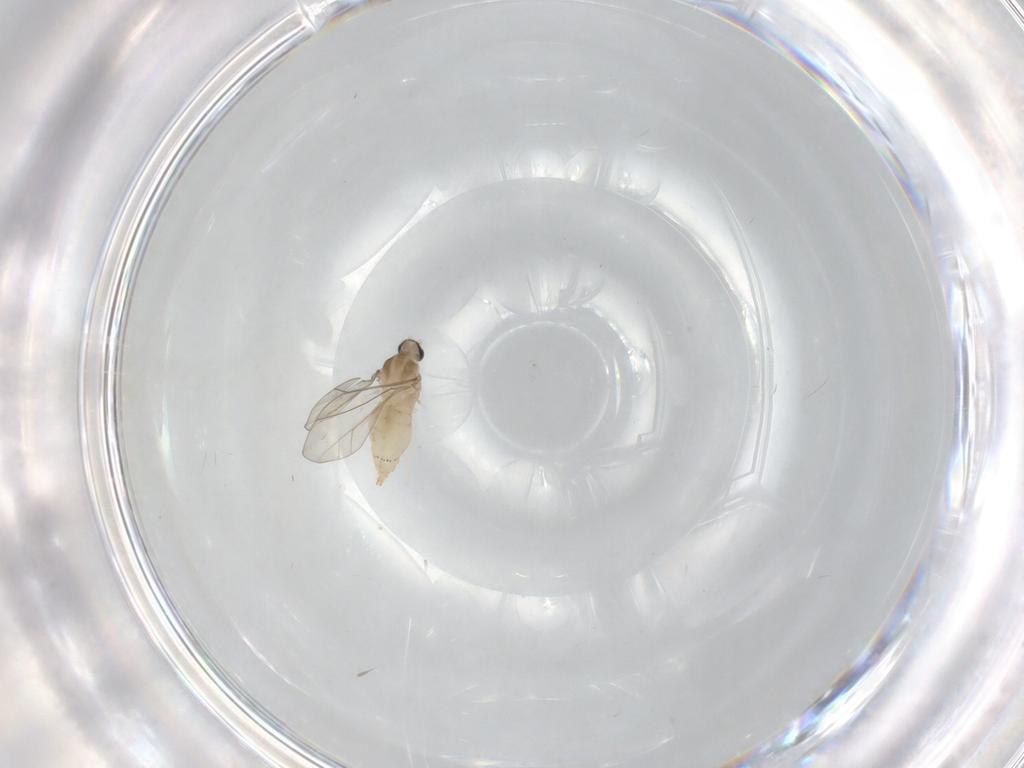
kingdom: Animalia
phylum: Arthropoda
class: Insecta
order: Diptera
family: Cecidomyiidae
